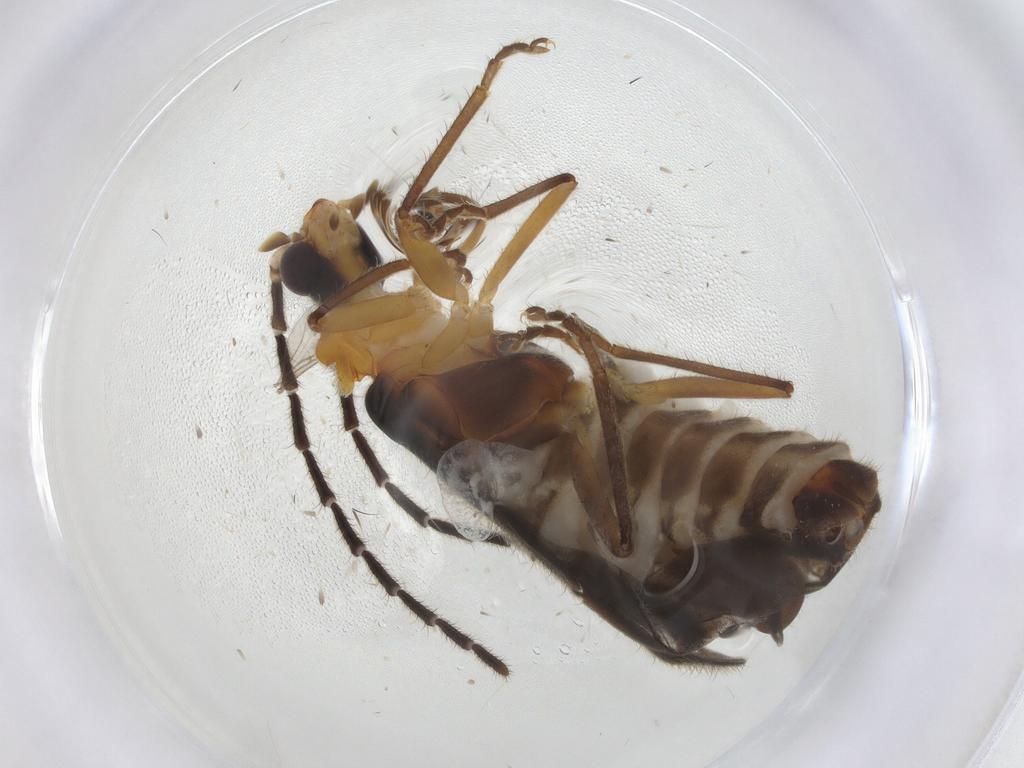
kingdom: Animalia
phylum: Arthropoda
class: Insecta
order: Coleoptera
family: Cantharidae
